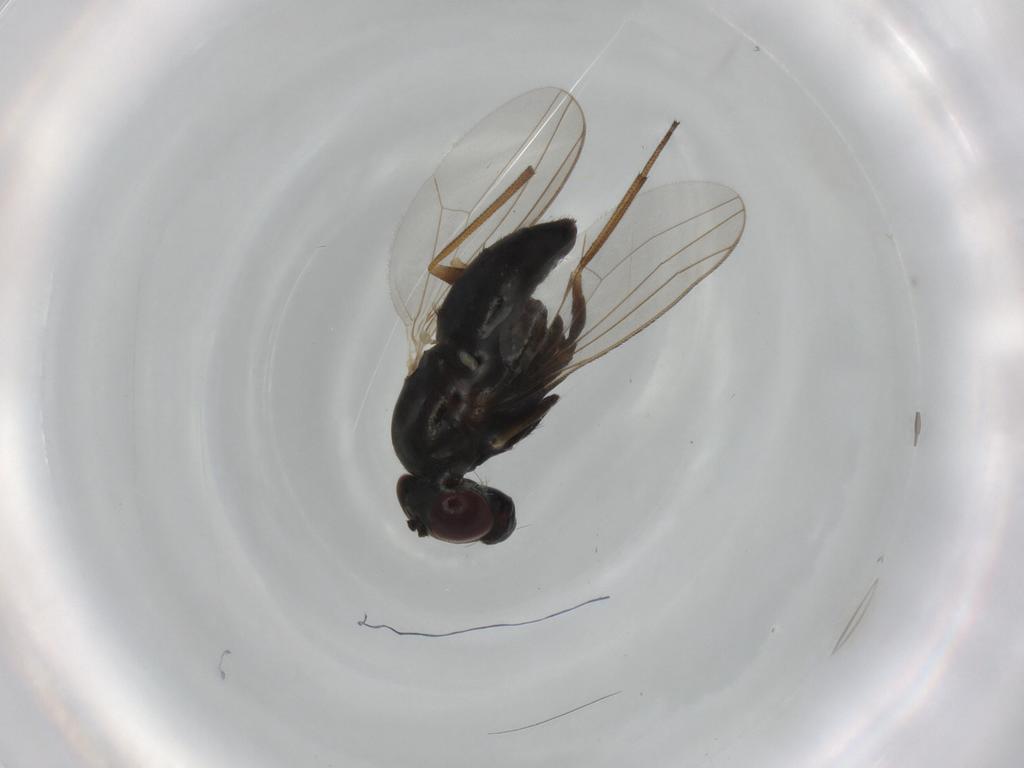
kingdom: Animalia
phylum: Arthropoda
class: Insecta
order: Diptera
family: Dolichopodidae
